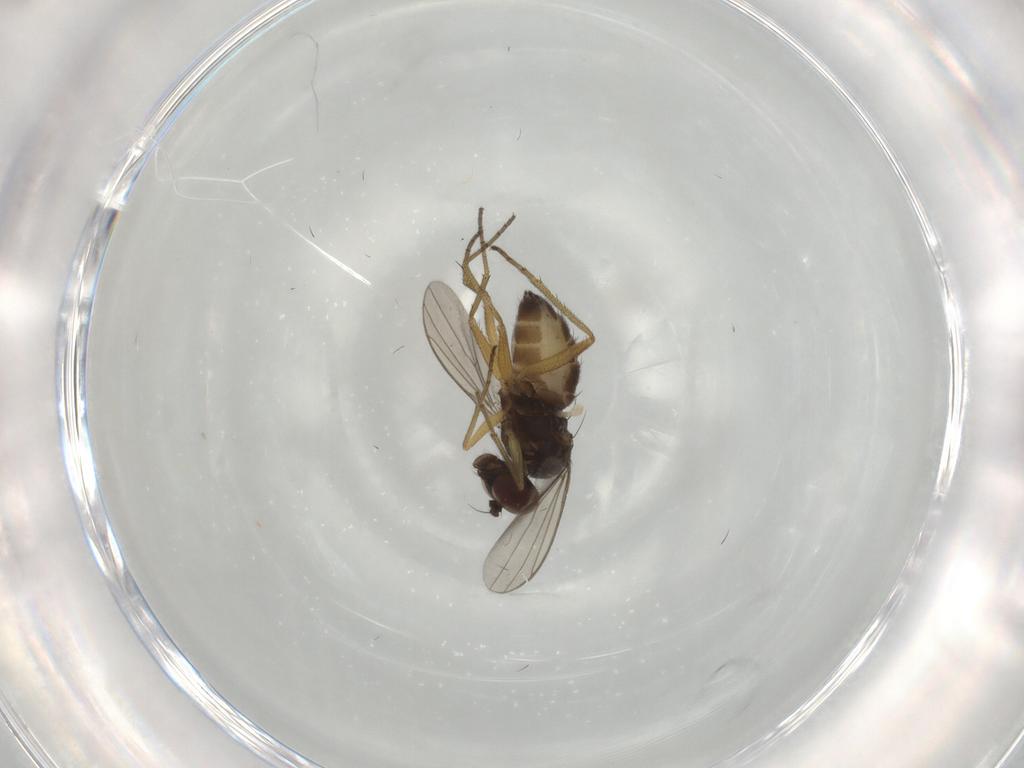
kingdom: Animalia
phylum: Arthropoda
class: Insecta
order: Diptera
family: Dolichopodidae
